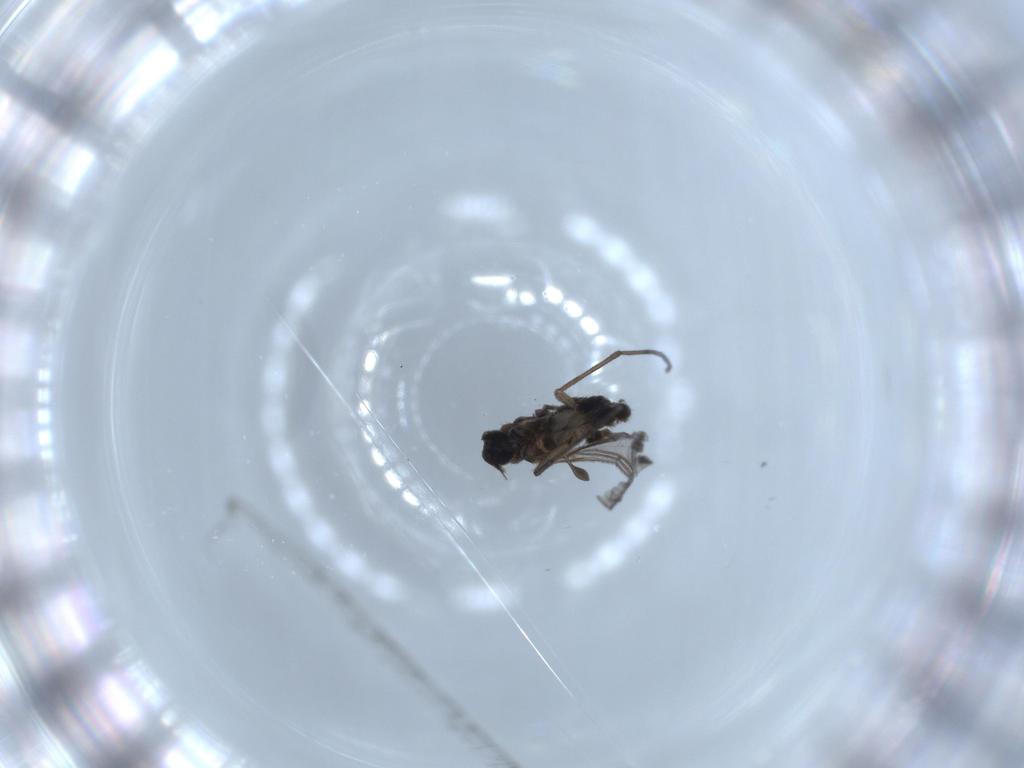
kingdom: Animalia
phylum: Arthropoda
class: Insecta
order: Diptera
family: Sciaridae
